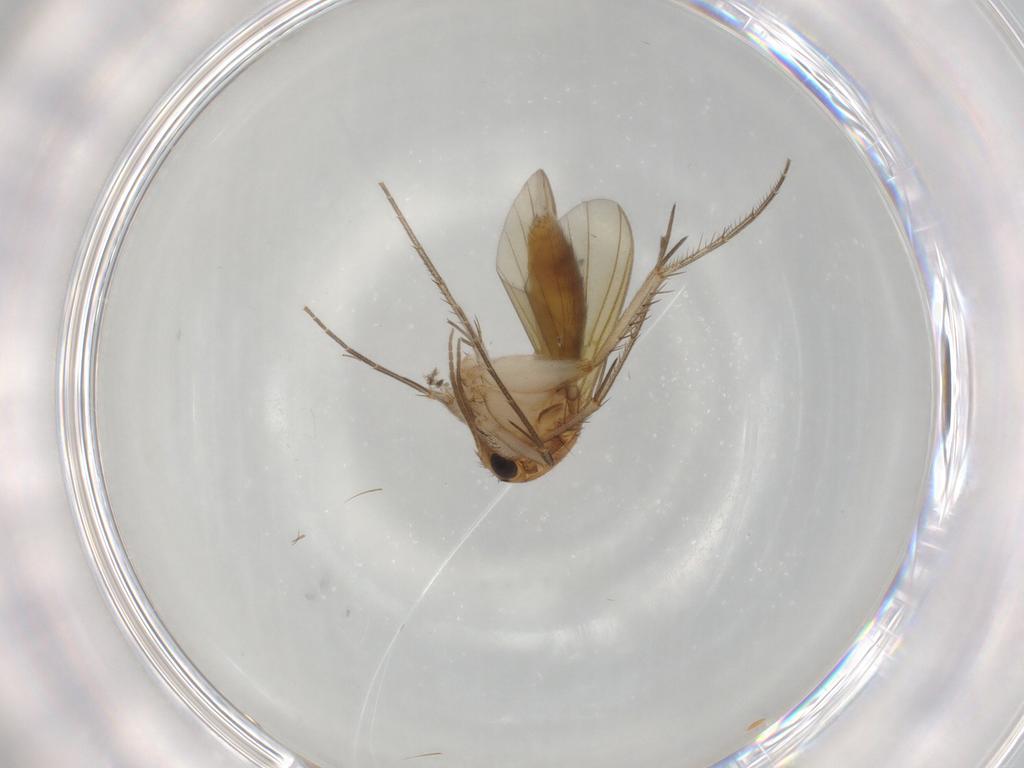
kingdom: Animalia
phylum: Arthropoda
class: Insecta
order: Diptera
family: Mycetophilidae
